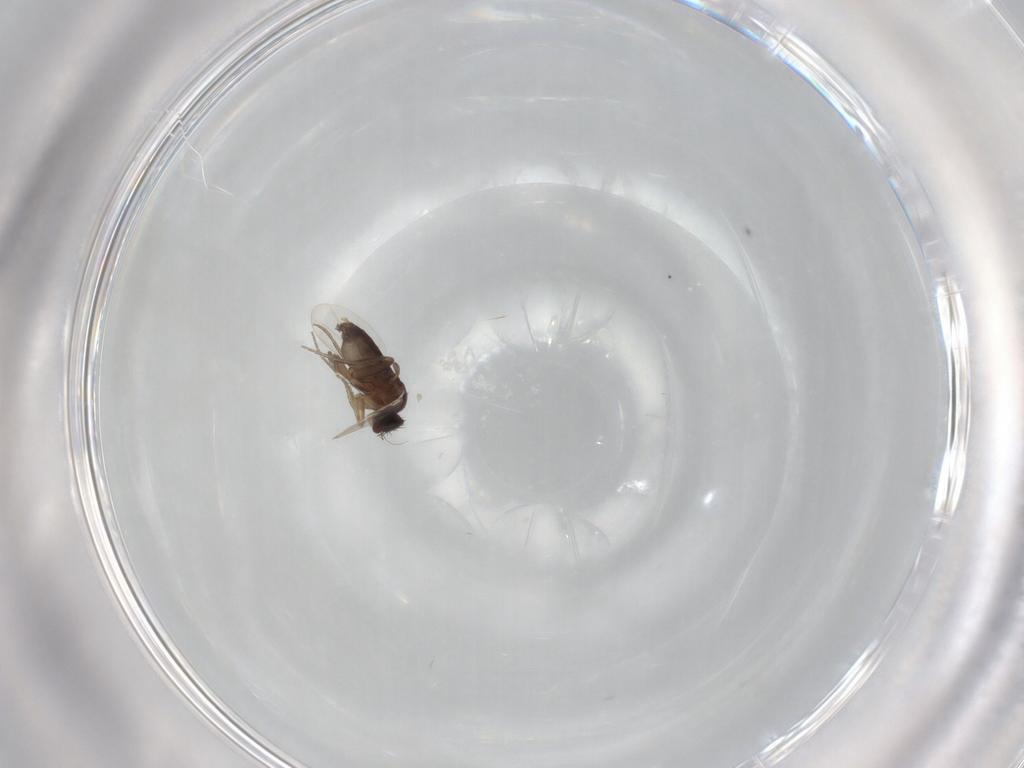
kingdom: Animalia
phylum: Arthropoda
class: Insecta
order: Diptera
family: Phoridae
